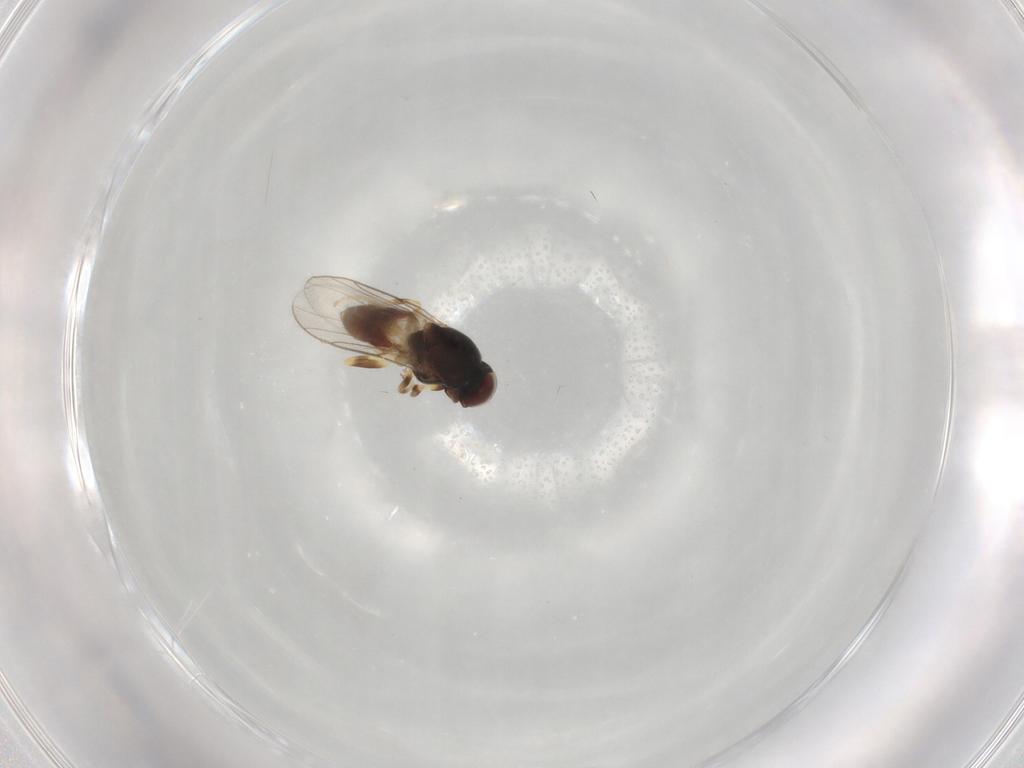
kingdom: Animalia
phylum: Arthropoda
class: Insecta
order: Diptera
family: Chloropidae
